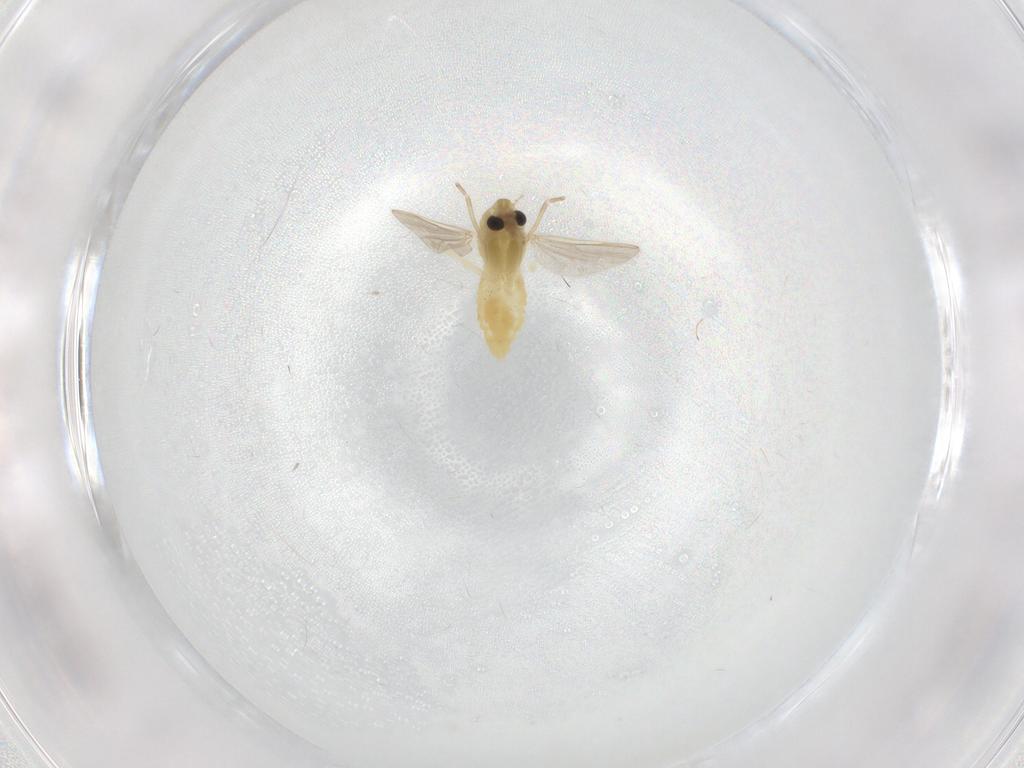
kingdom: Animalia
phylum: Arthropoda
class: Insecta
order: Diptera
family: Chironomidae
